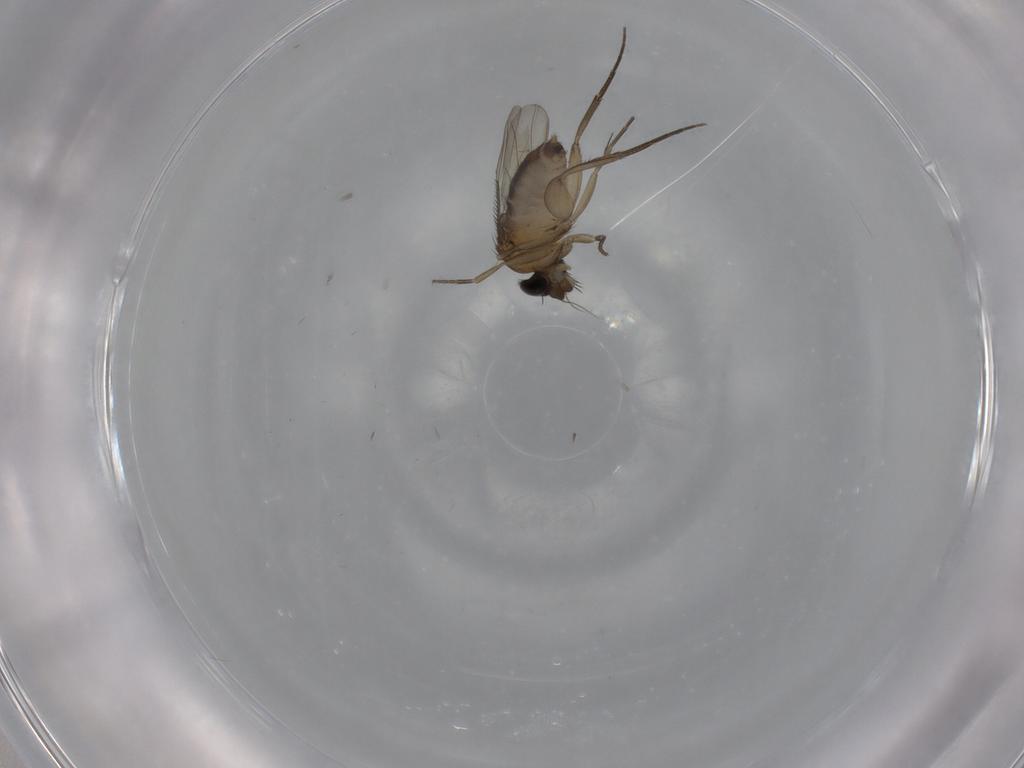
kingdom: Animalia
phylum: Arthropoda
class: Insecta
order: Diptera
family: Phoridae
